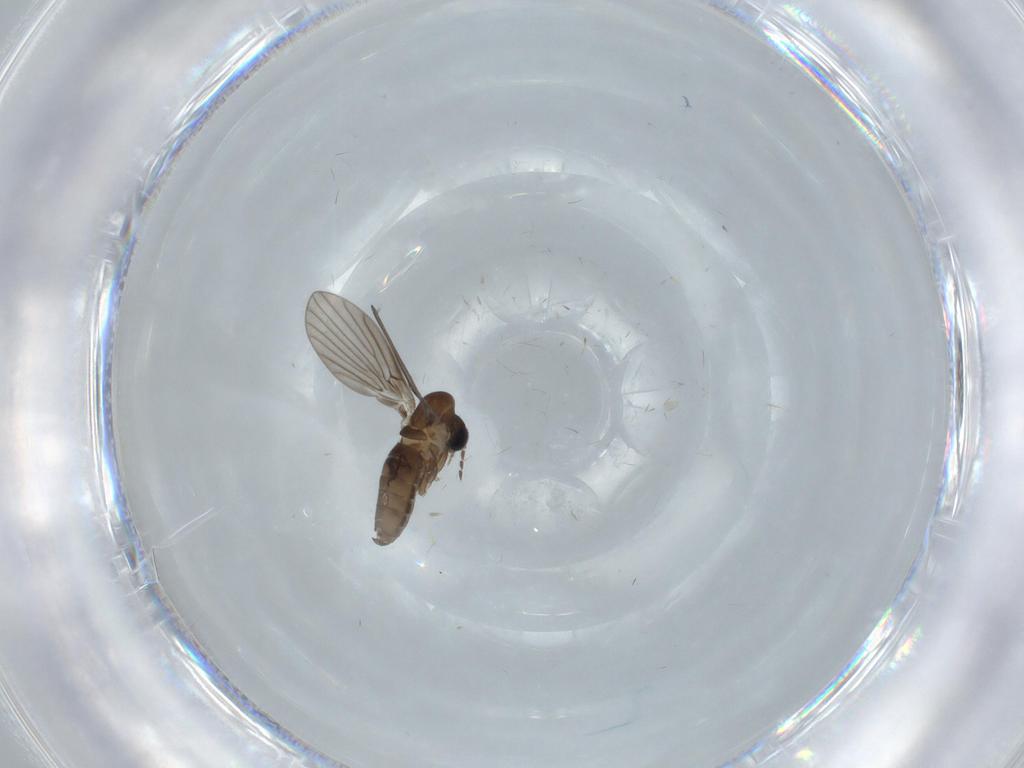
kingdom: Animalia
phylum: Arthropoda
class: Insecta
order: Diptera
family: Psychodidae
